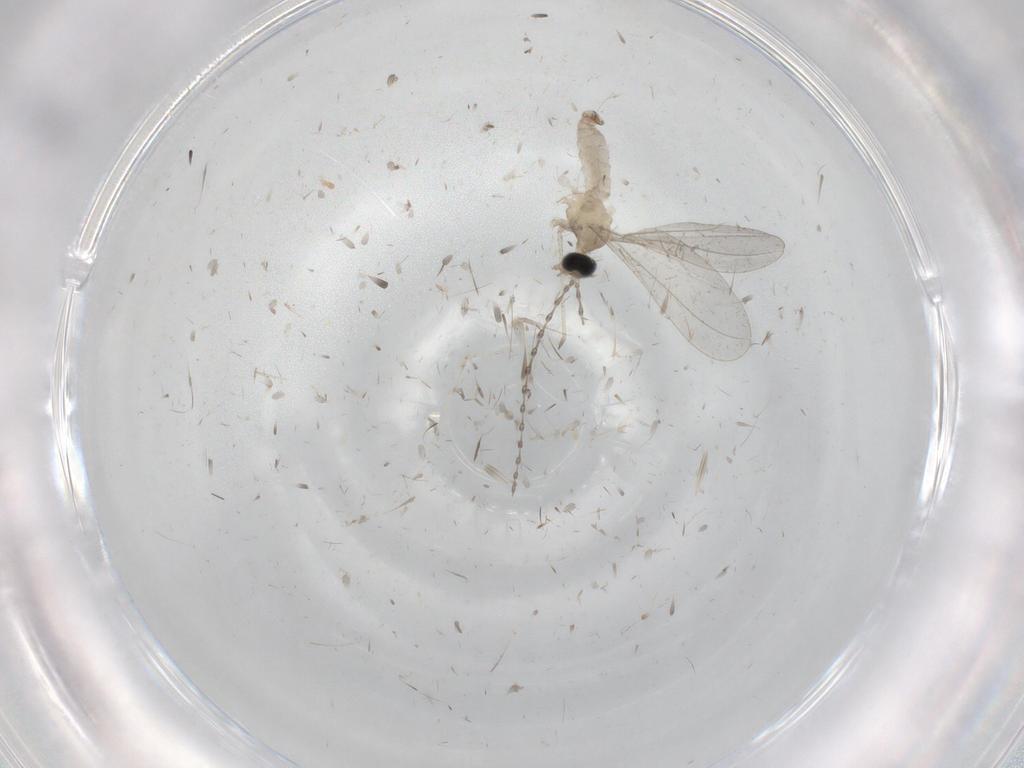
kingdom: Animalia
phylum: Arthropoda
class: Insecta
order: Diptera
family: Cecidomyiidae
